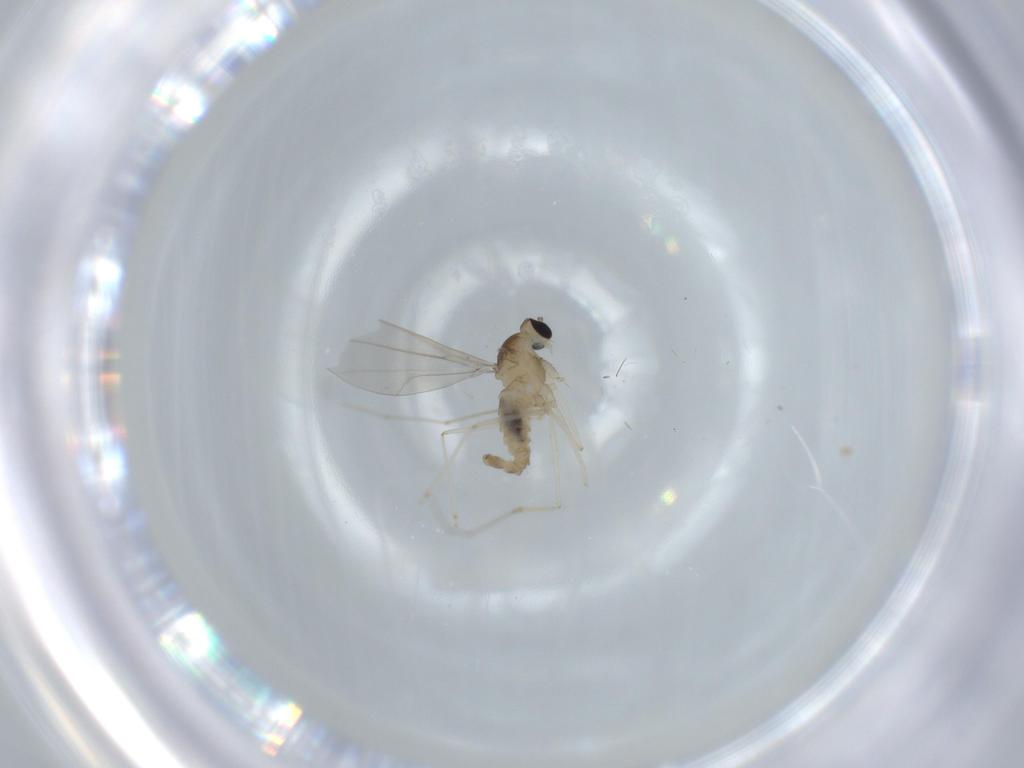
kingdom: Animalia
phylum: Arthropoda
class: Insecta
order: Diptera
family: Cecidomyiidae
